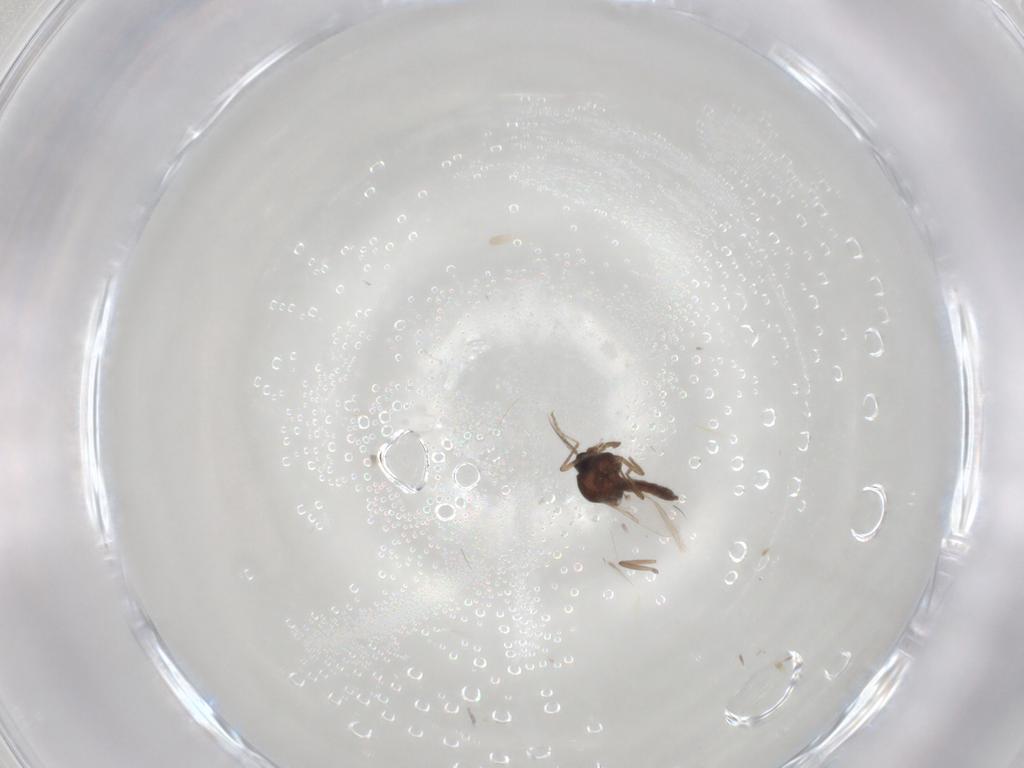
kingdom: Animalia
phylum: Arthropoda
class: Insecta
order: Diptera
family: Ceratopogonidae
